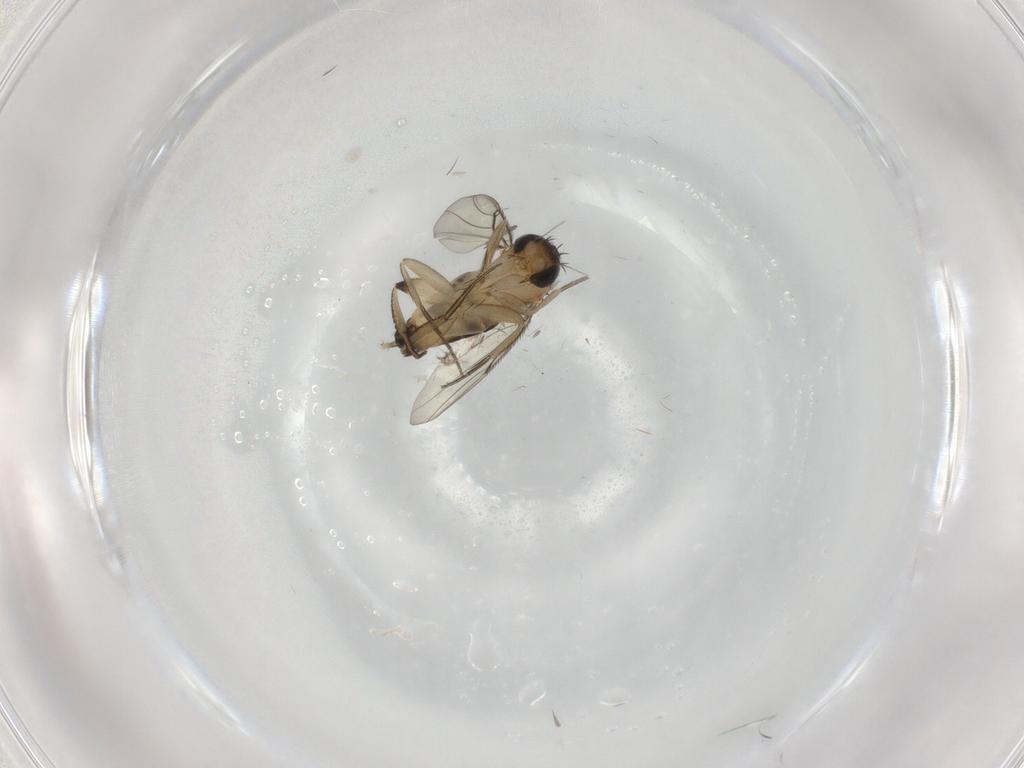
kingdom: Animalia
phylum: Arthropoda
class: Insecta
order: Diptera
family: Phoridae
